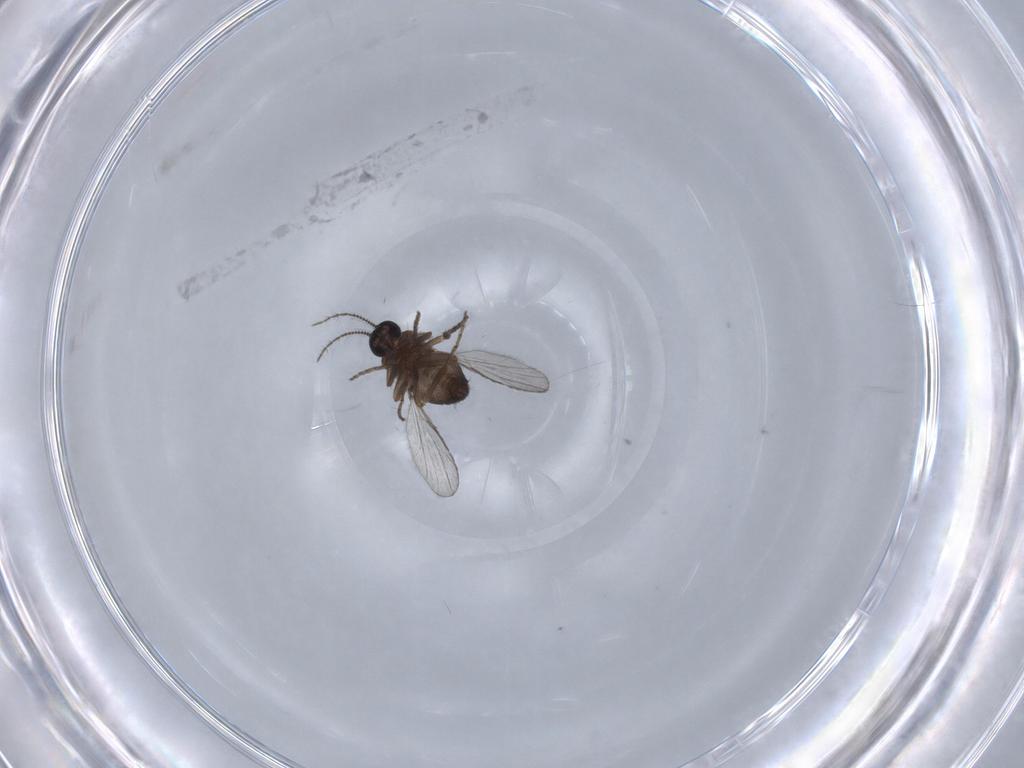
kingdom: Animalia
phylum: Arthropoda
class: Insecta
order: Diptera
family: Ceratopogonidae
